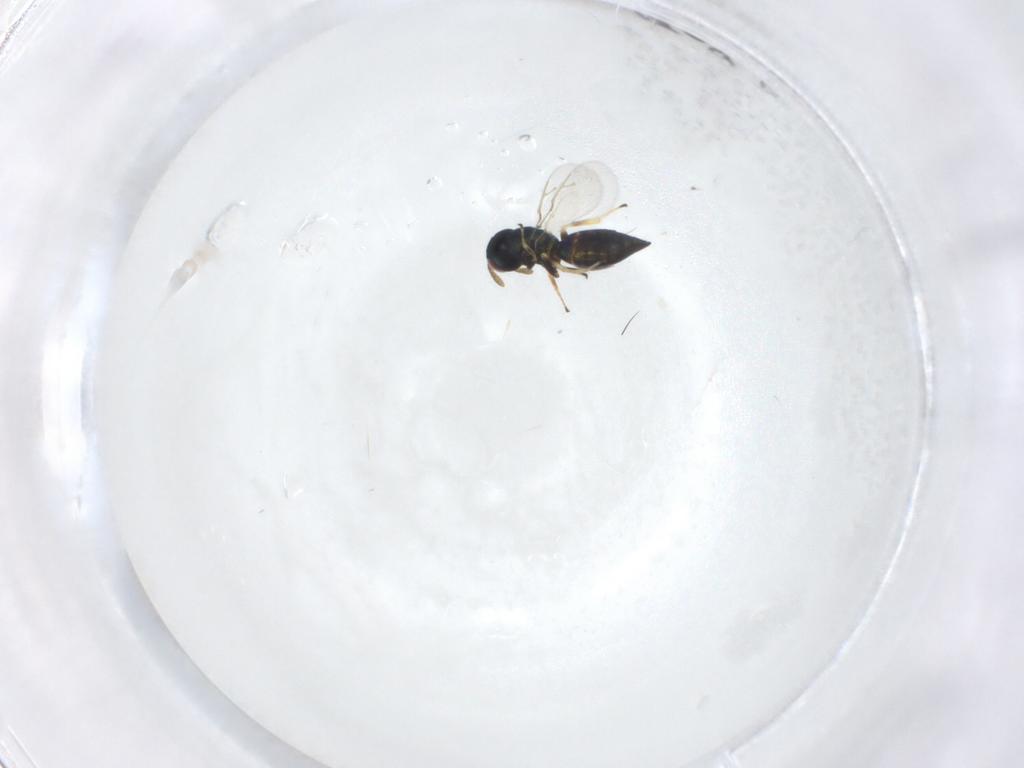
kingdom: Animalia
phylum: Arthropoda
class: Insecta
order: Hymenoptera
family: Pteromalidae
